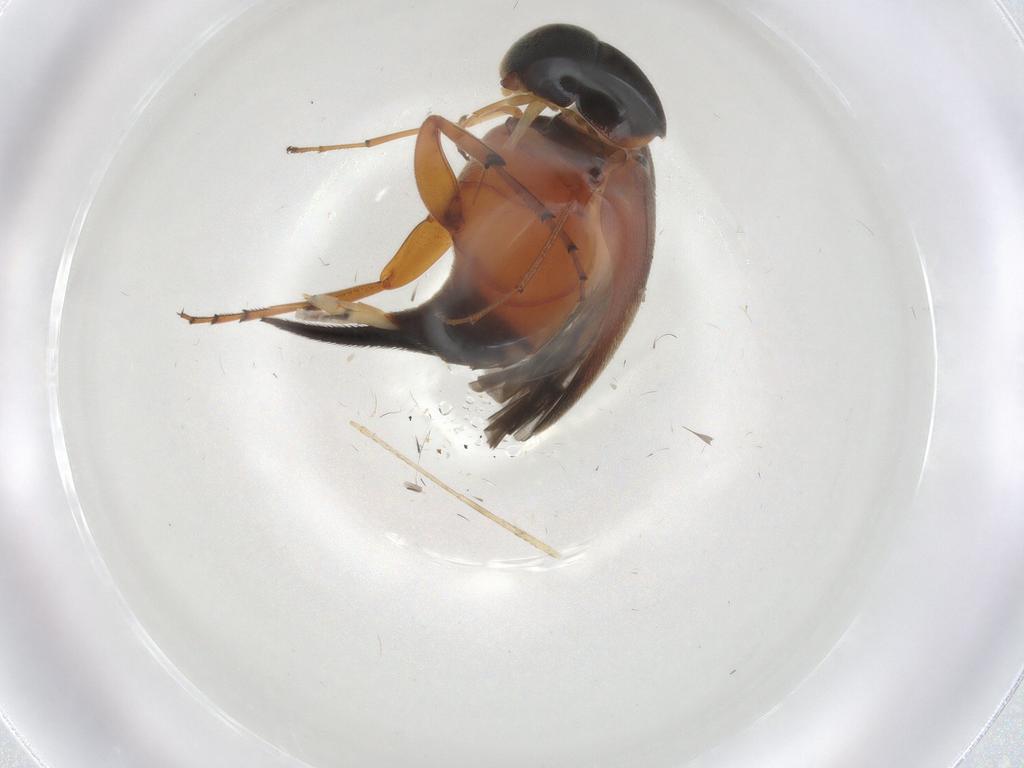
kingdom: Animalia
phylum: Arthropoda
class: Insecta
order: Coleoptera
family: Mordellidae
